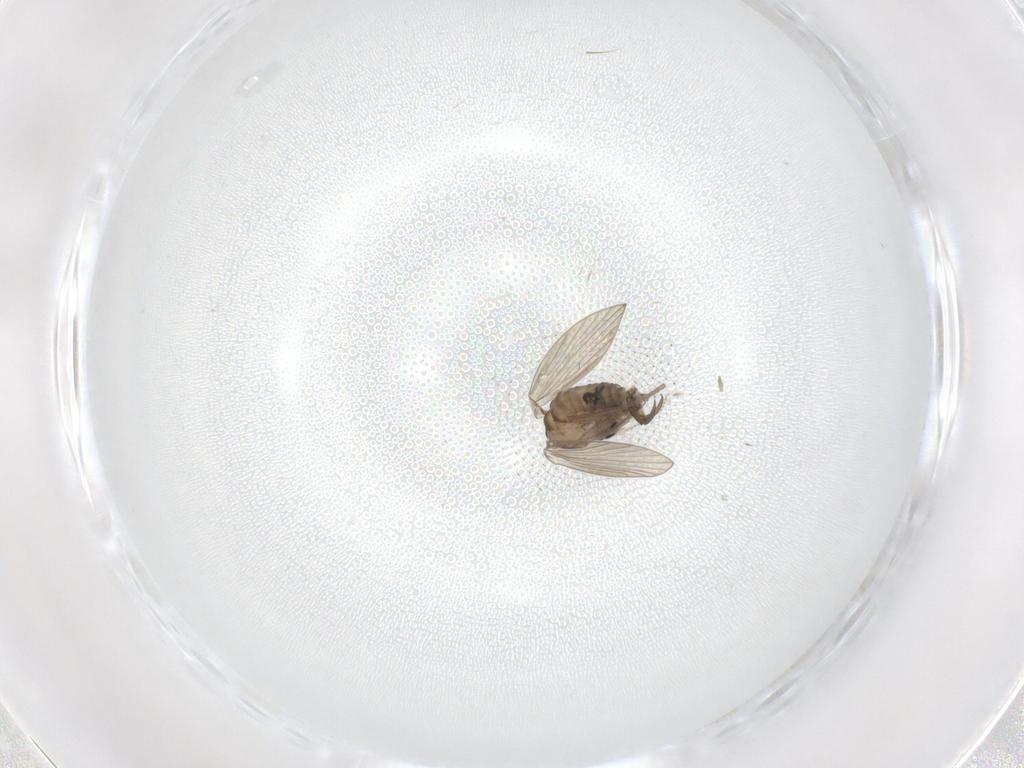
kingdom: Animalia
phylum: Arthropoda
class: Insecta
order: Diptera
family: Psychodidae
